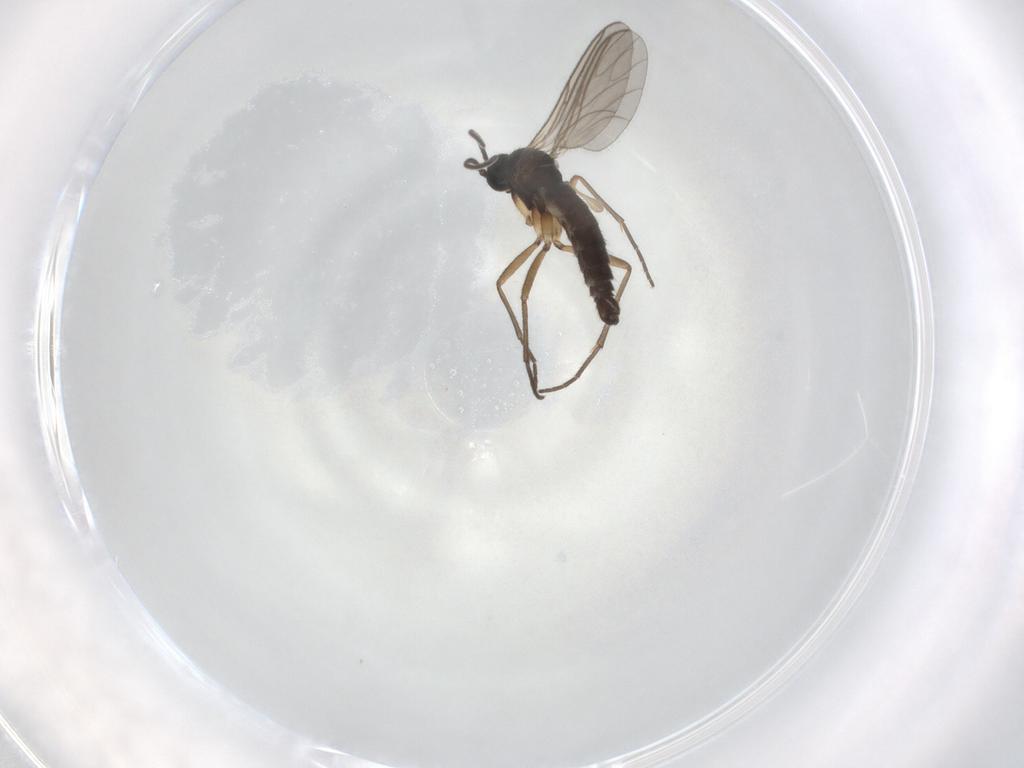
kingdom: Animalia
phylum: Arthropoda
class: Insecta
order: Diptera
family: Sciaridae
